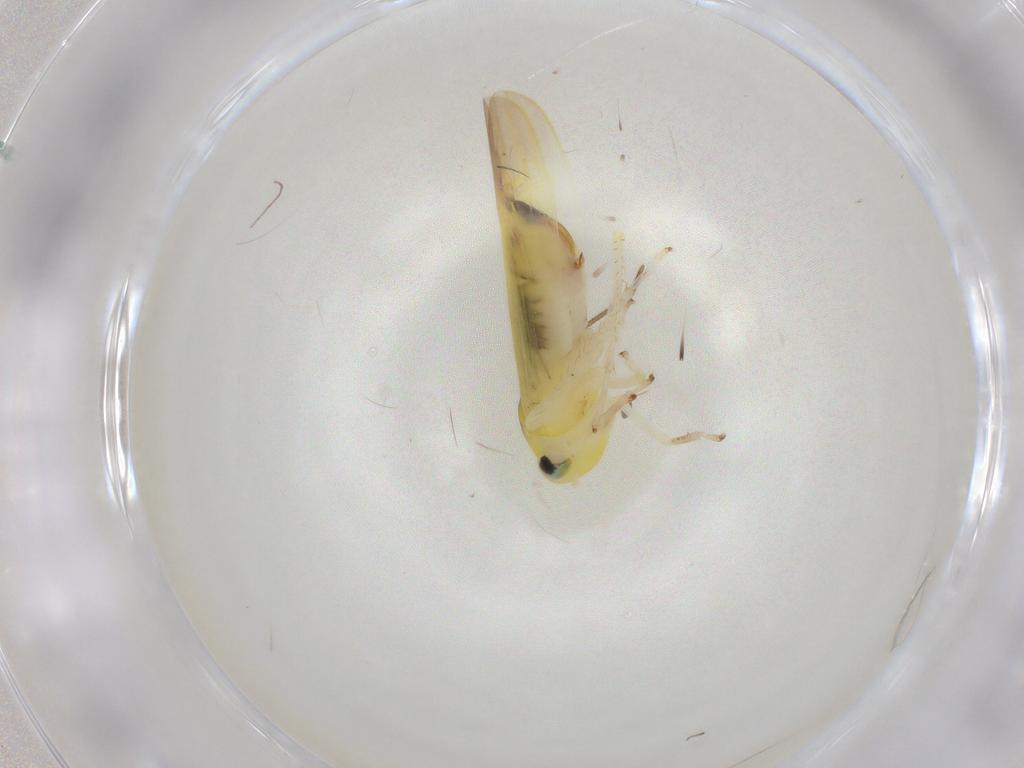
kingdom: Animalia
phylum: Arthropoda
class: Insecta
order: Hemiptera
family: Cicadellidae
